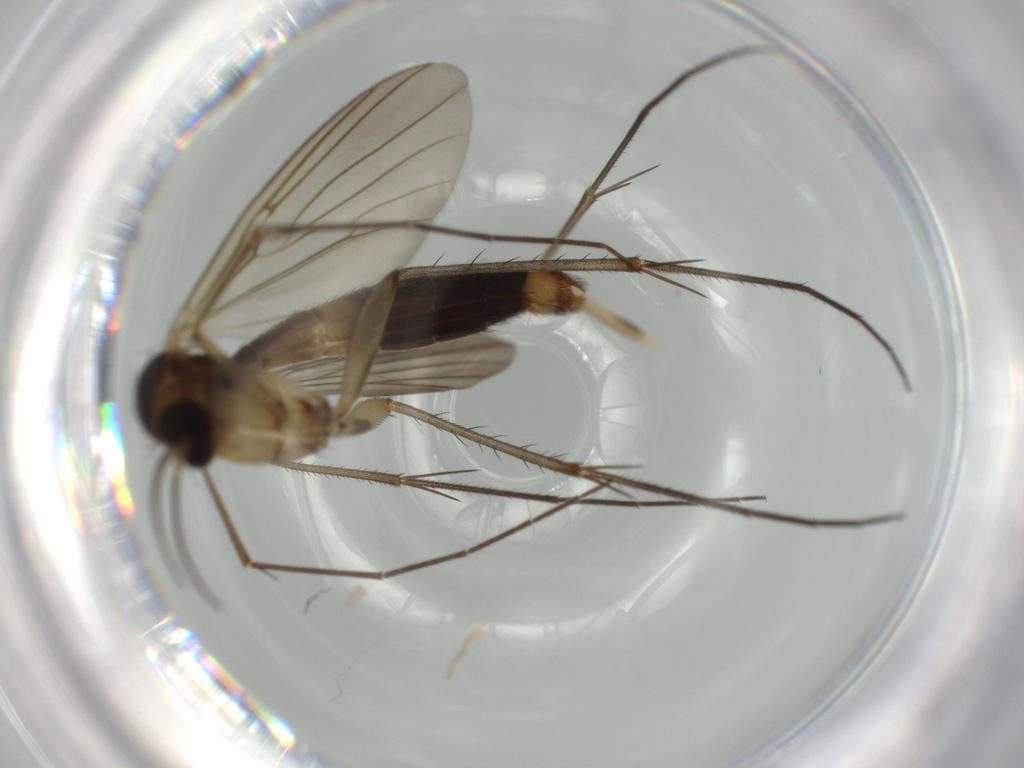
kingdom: Animalia
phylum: Arthropoda
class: Insecta
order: Diptera
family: Mycetophilidae
